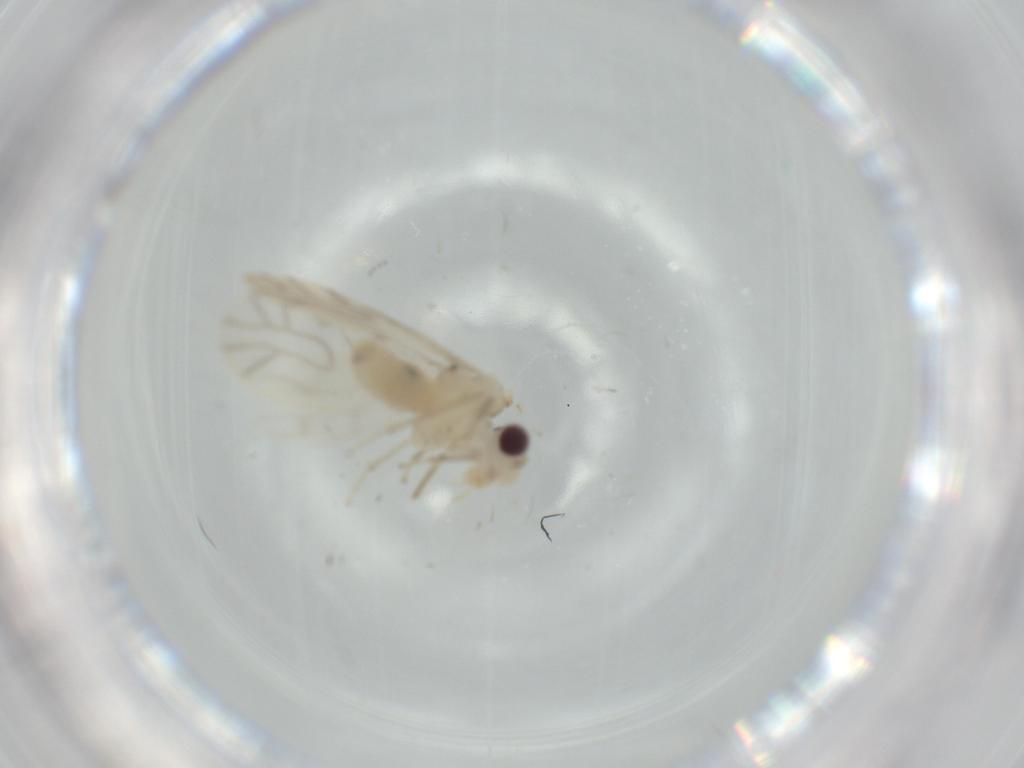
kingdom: Animalia
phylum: Arthropoda
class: Insecta
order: Psocodea
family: Caeciliusidae
